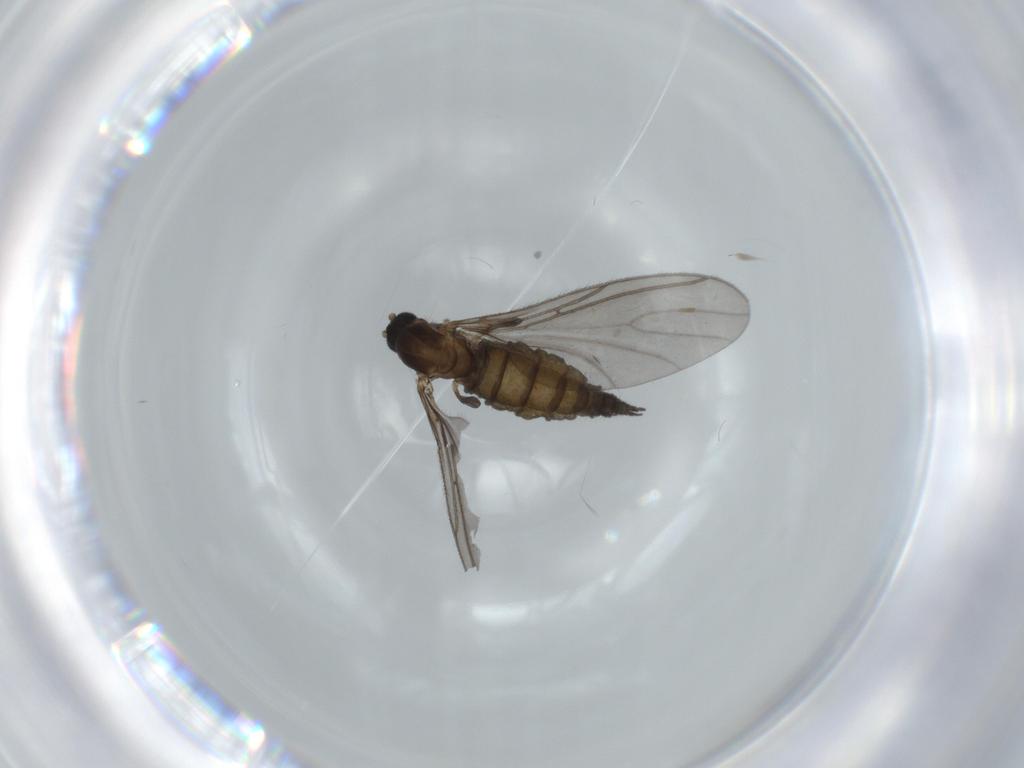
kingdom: Animalia
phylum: Arthropoda
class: Insecta
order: Diptera
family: Sciaridae
